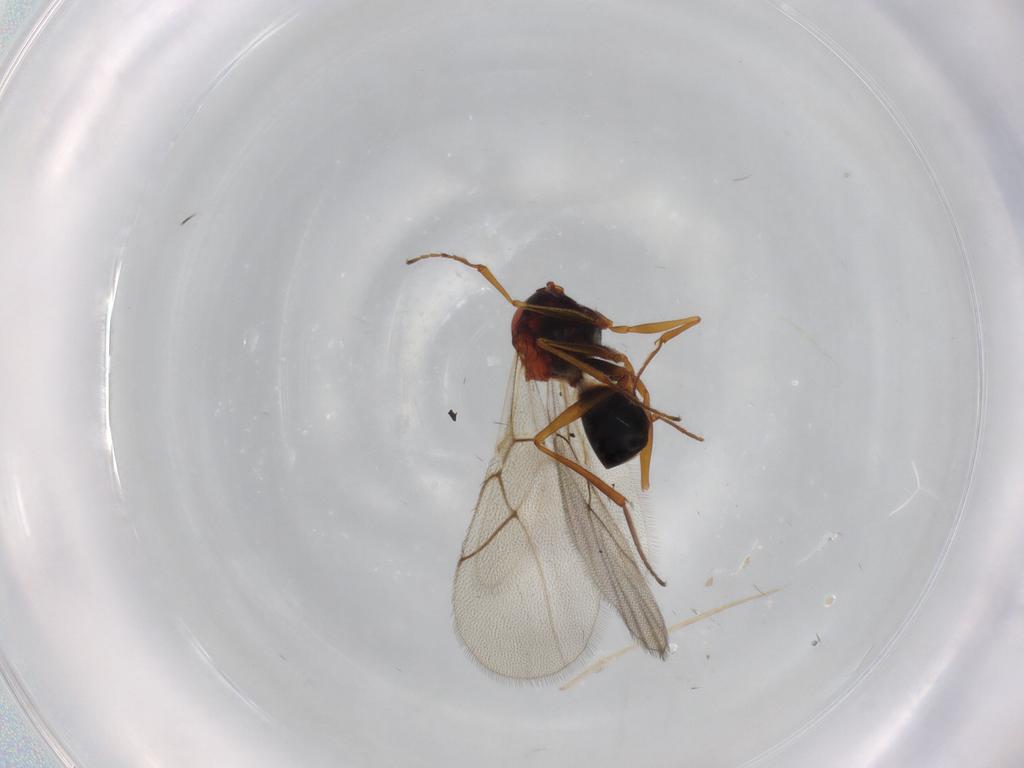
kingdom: Animalia
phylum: Arthropoda
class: Insecta
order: Hymenoptera
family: Figitidae
